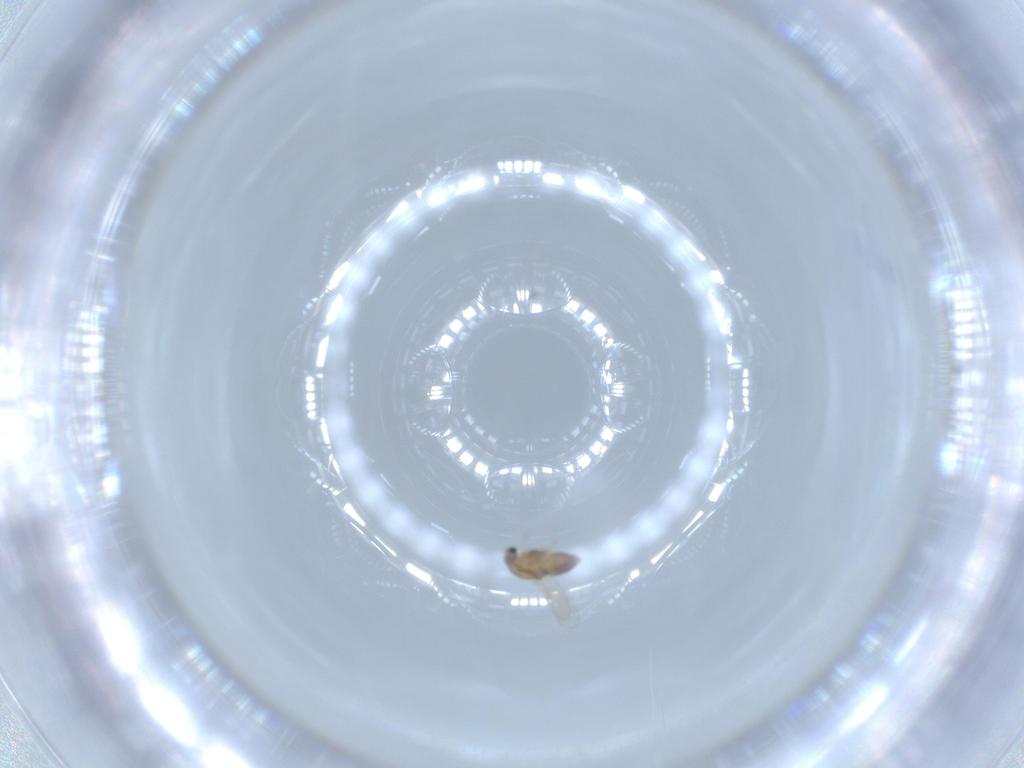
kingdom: Animalia
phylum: Arthropoda
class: Insecta
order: Diptera
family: Chironomidae
